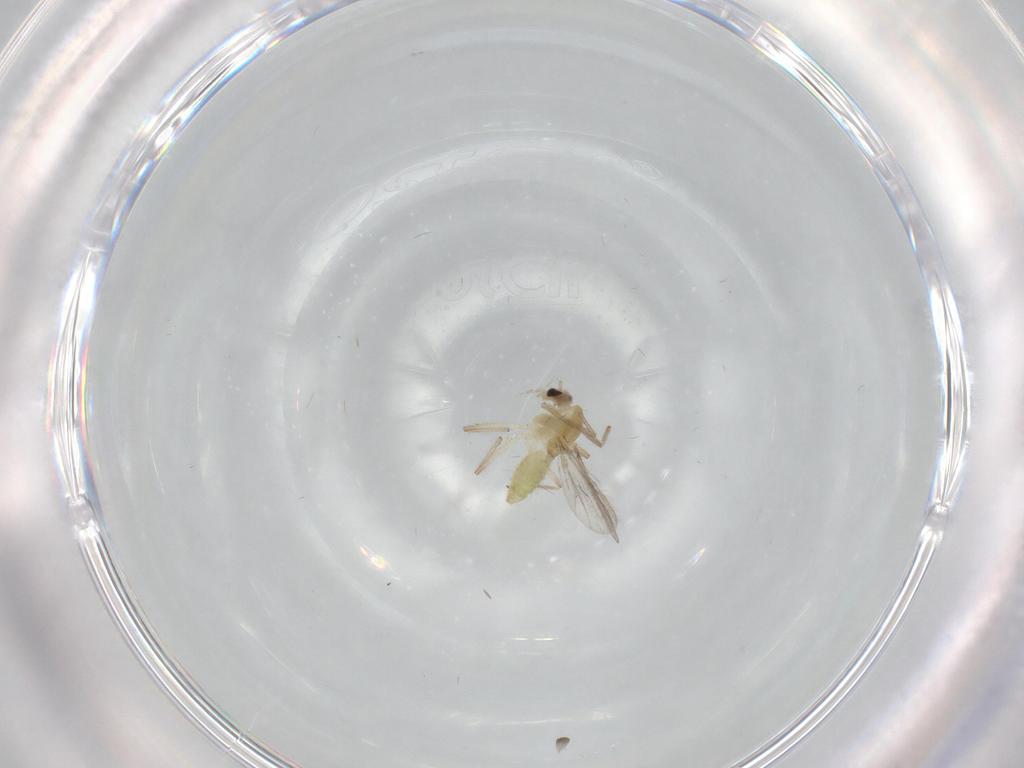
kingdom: Animalia
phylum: Arthropoda
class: Insecta
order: Diptera
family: Chironomidae
